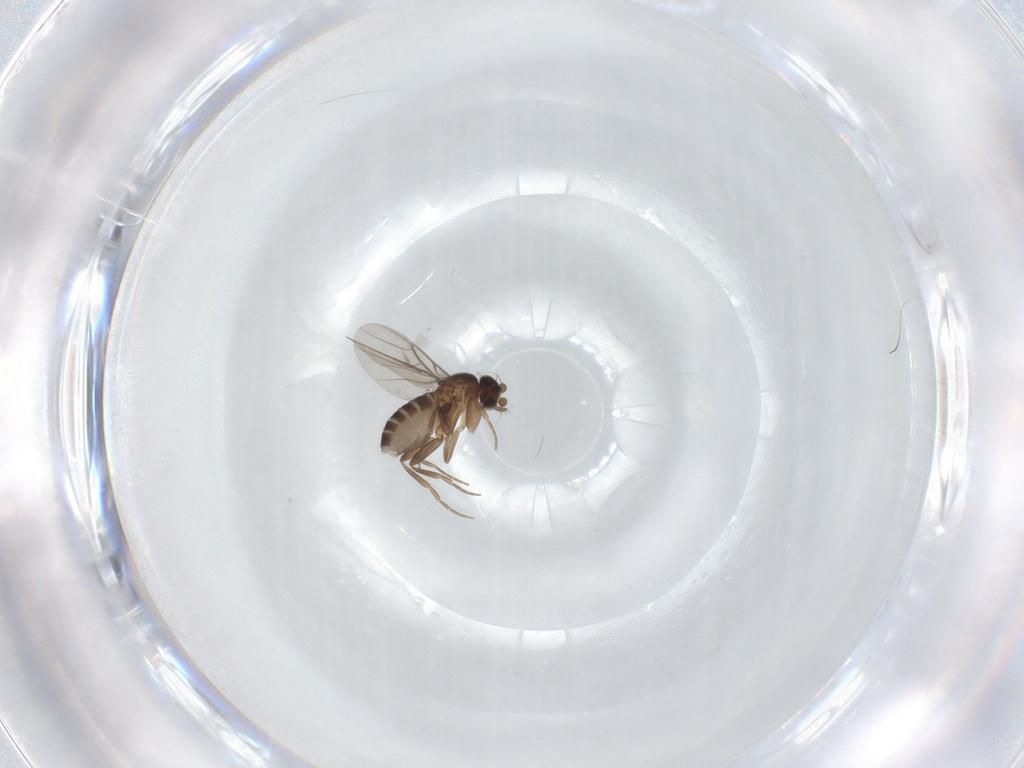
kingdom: Animalia
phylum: Arthropoda
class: Insecta
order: Diptera
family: Phoridae
